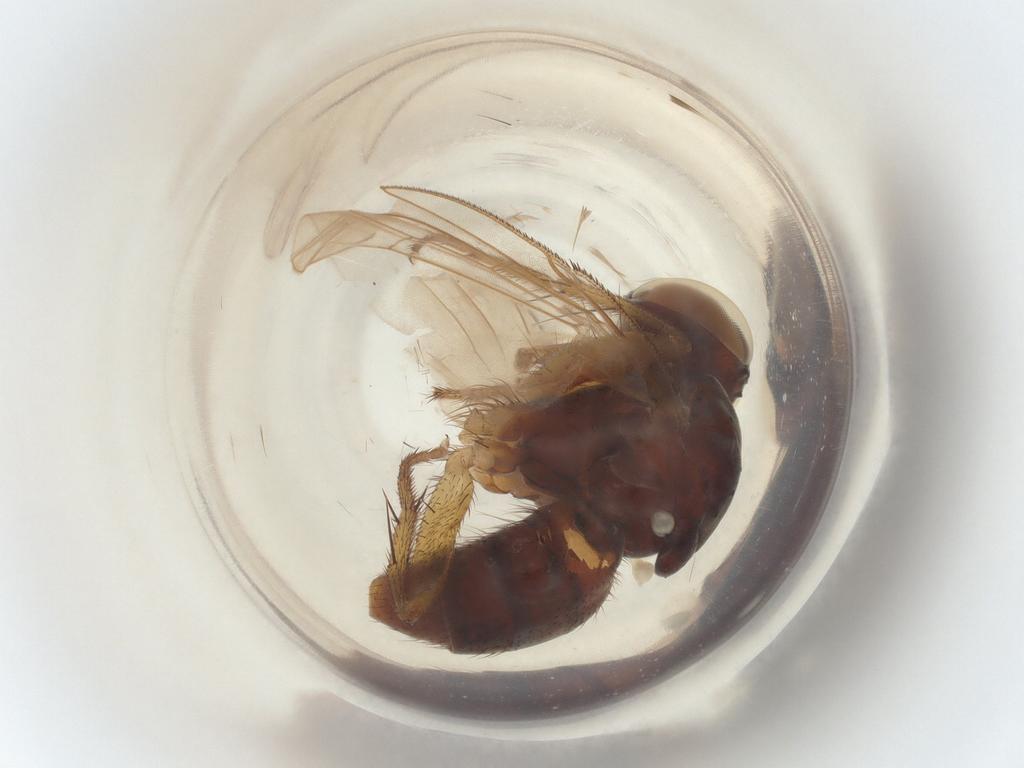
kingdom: Animalia
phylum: Arthropoda
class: Insecta
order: Diptera
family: Muscidae
